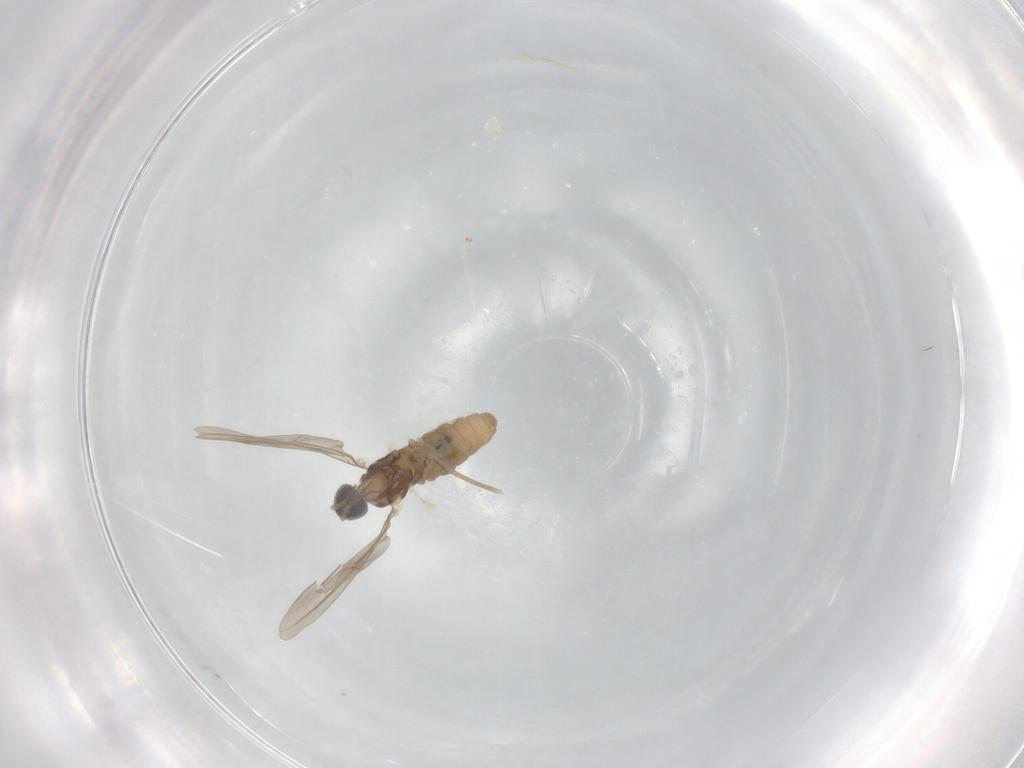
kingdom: Animalia
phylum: Arthropoda
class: Insecta
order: Diptera
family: Cecidomyiidae
